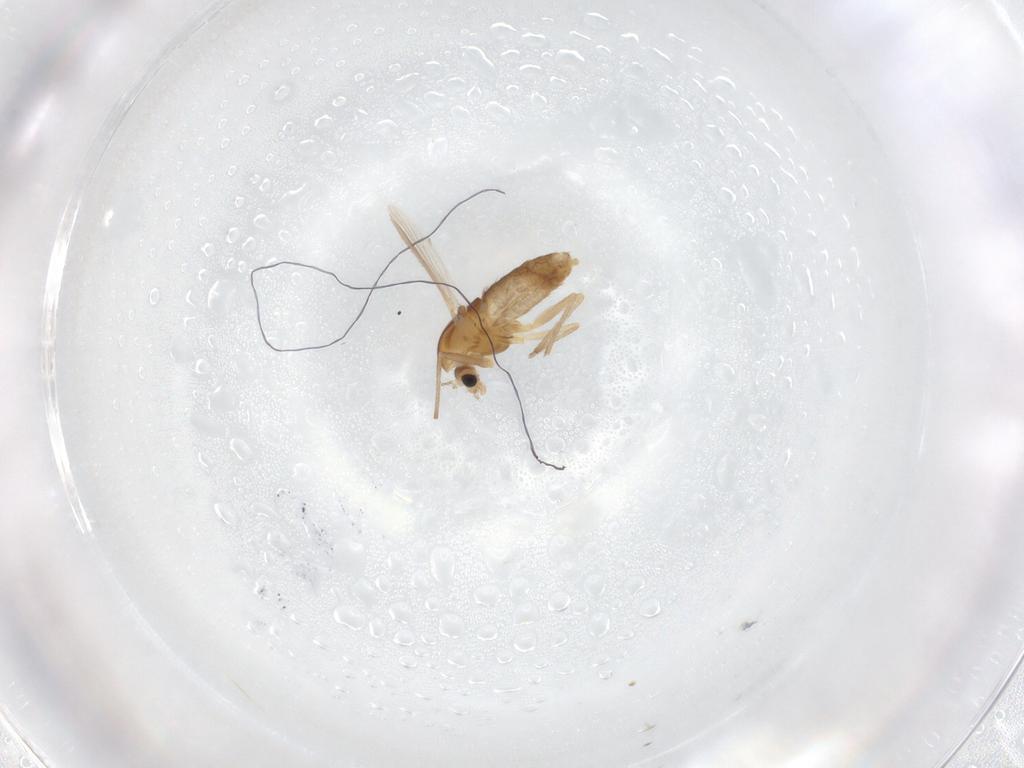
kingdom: Animalia
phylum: Arthropoda
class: Insecta
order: Diptera
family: Chironomidae
